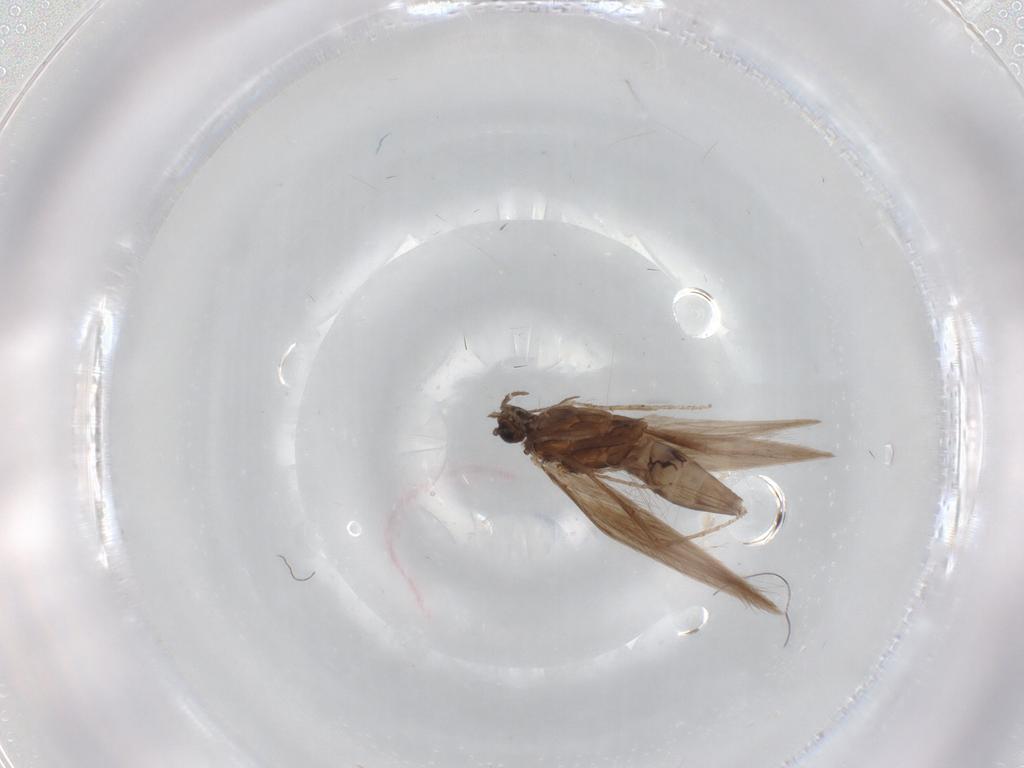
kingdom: Animalia
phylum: Arthropoda
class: Insecta
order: Trichoptera
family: Hydroptilidae
